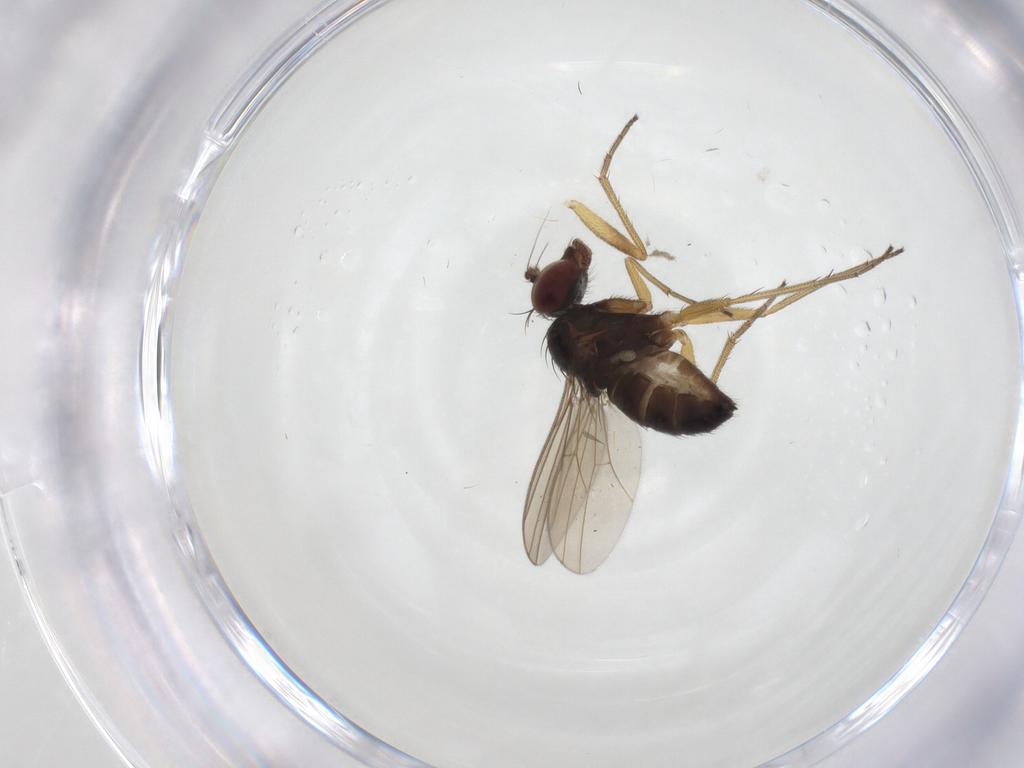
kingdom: Animalia
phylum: Arthropoda
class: Insecta
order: Diptera
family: Dolichopodidae
